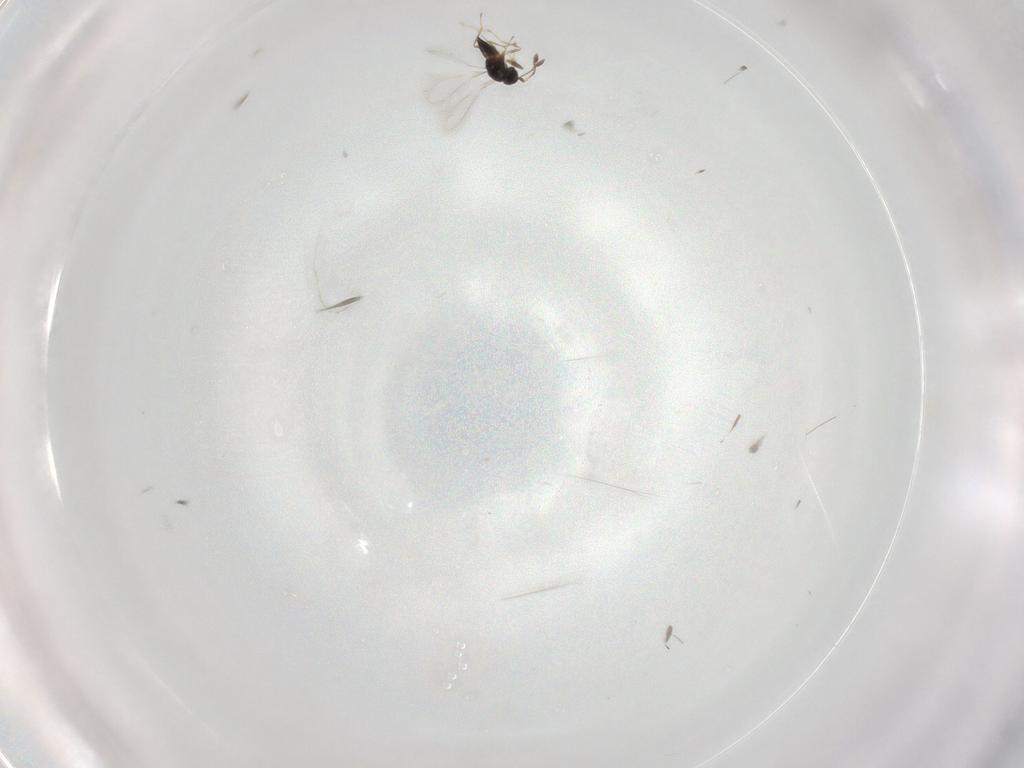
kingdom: Animalia
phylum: Arthropoda
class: Insecta
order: Hymenoptera
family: Mymaridae
